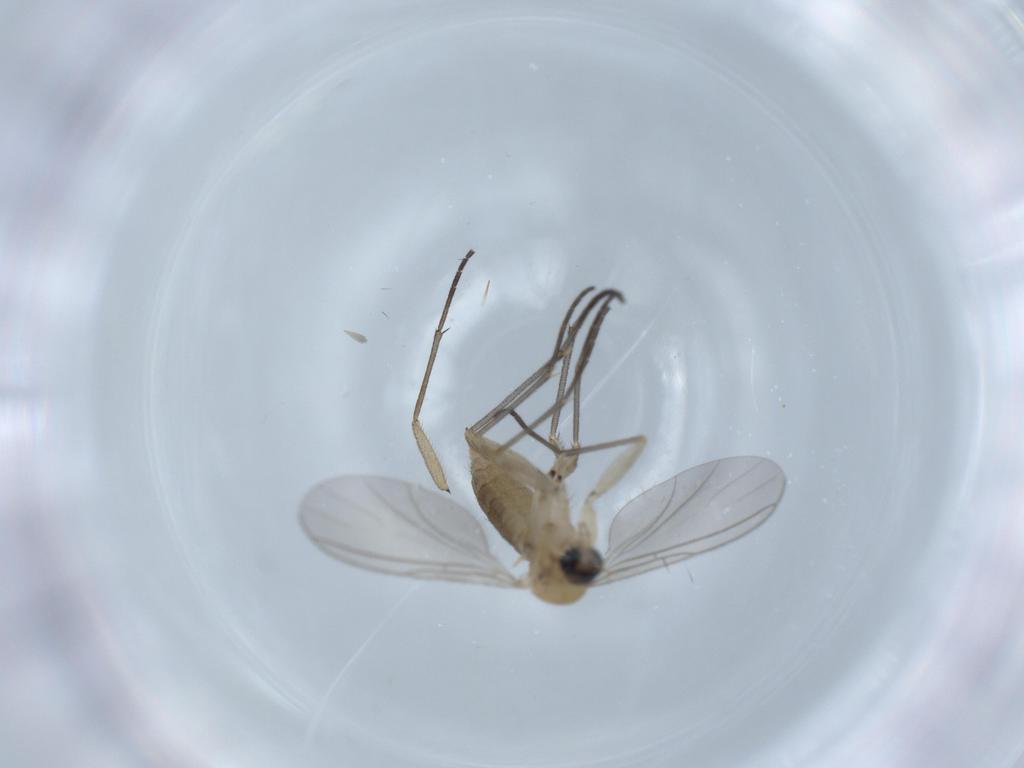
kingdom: Animalia
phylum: Arthropoda
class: Insecta
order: Diptera
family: Sciaridae
